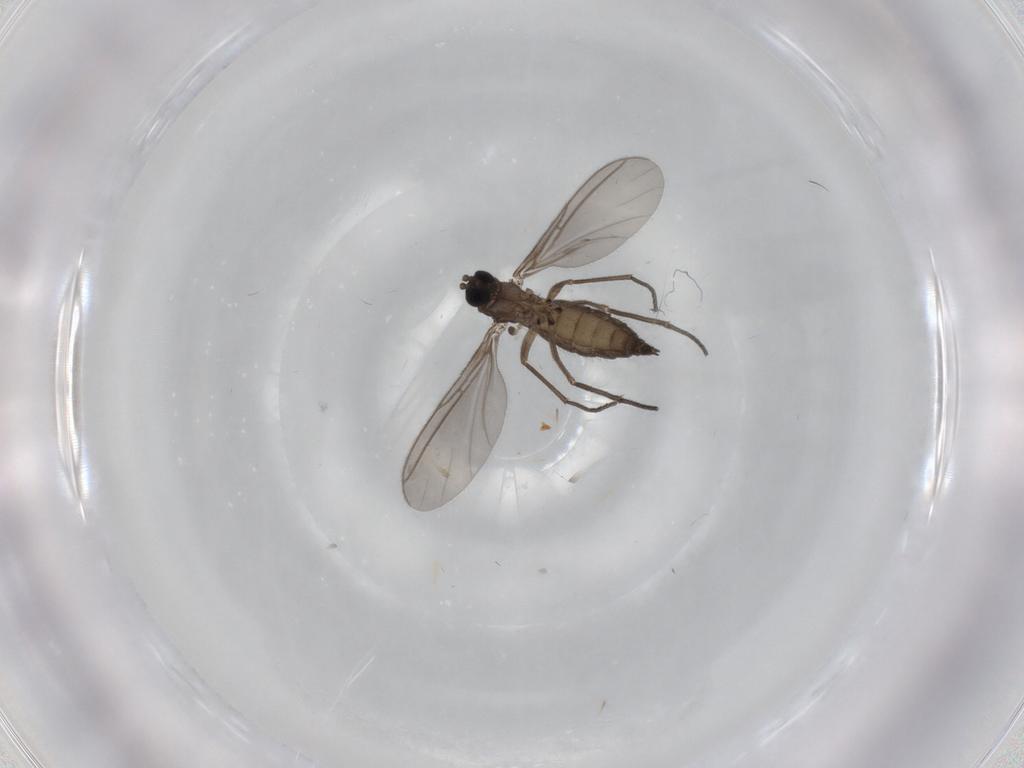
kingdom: Animalia
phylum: Arthropoda
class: Insecta
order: Diptera
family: Sciaridae
